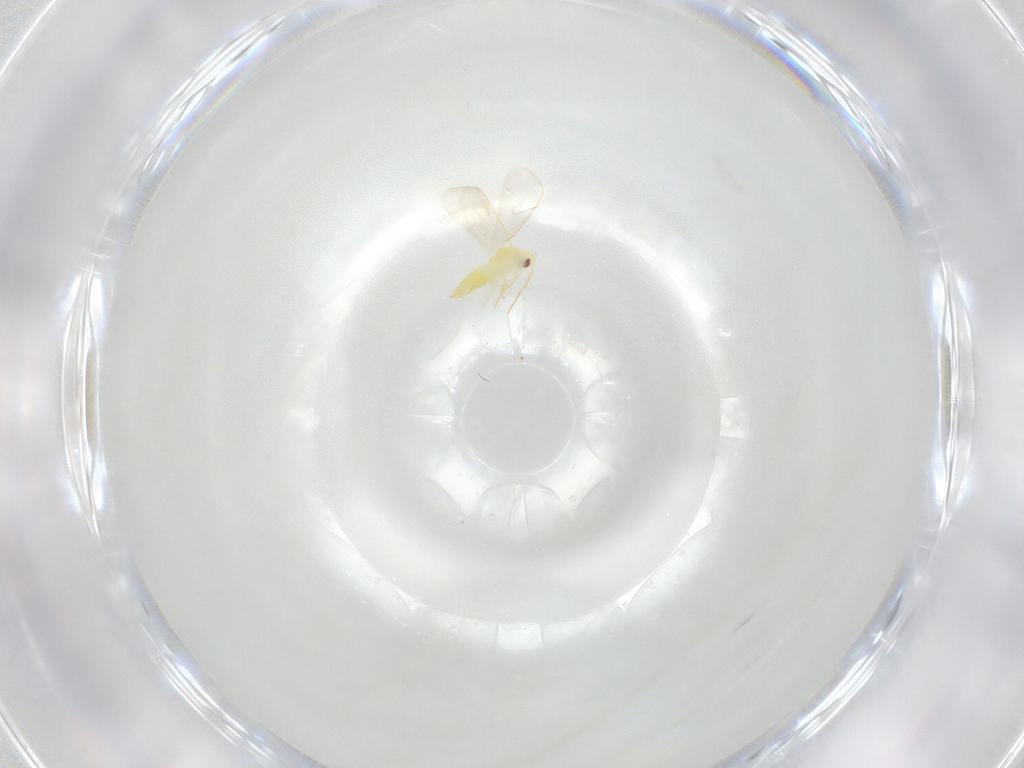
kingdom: Animalia
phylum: Arthropoda
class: Insecta
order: Hemiptera
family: Aleyrodidae
